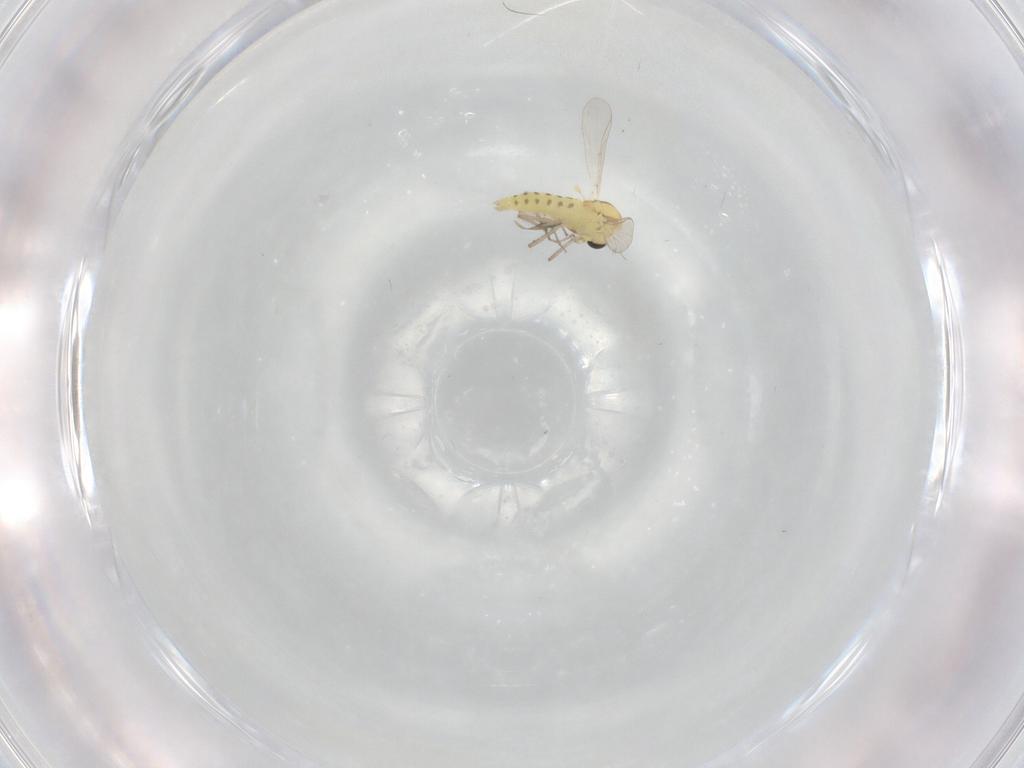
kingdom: Animalia
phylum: Arthropoda
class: Insecta
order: Diptera
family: Chironomidae
